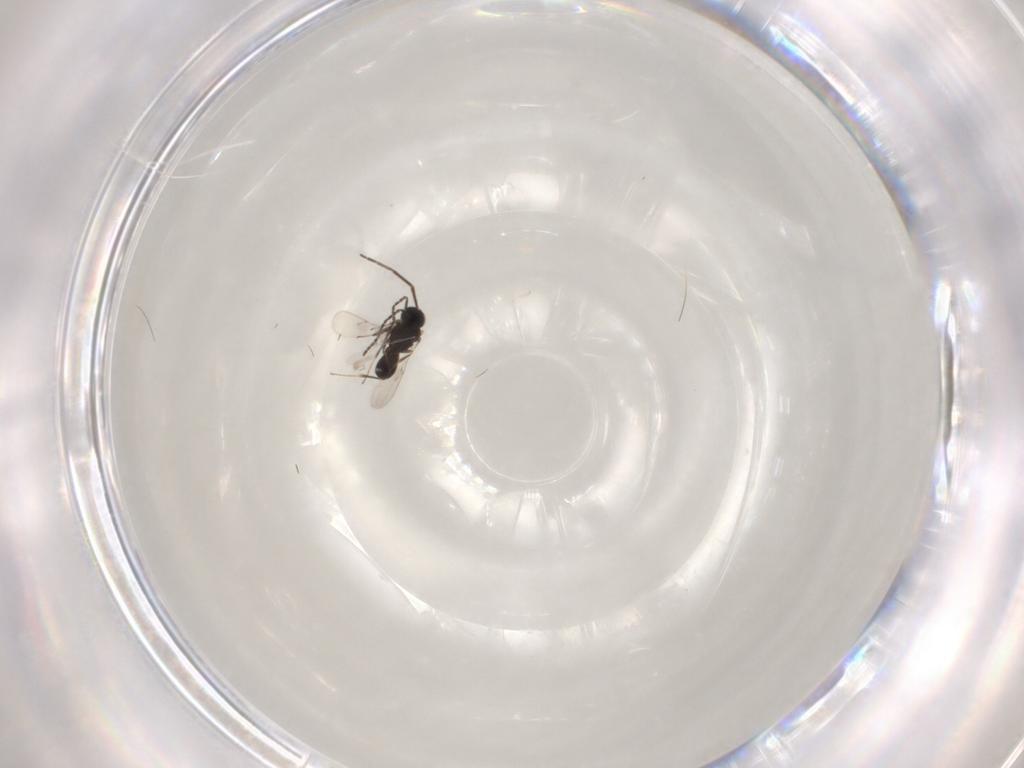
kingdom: Animalia
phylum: Arthropoda
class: Insecta
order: Hymenoptera
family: Scelionidae
